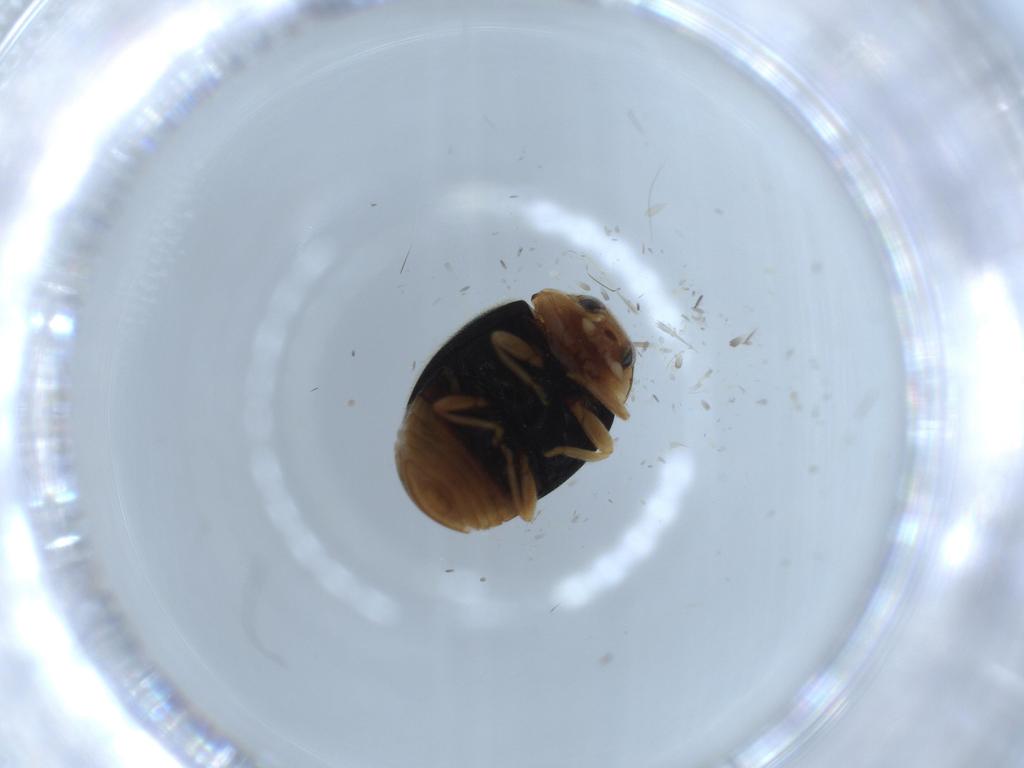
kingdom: Animalia
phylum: Arthropoda
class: Insecta
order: Coleoptera
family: Coccinellidae
